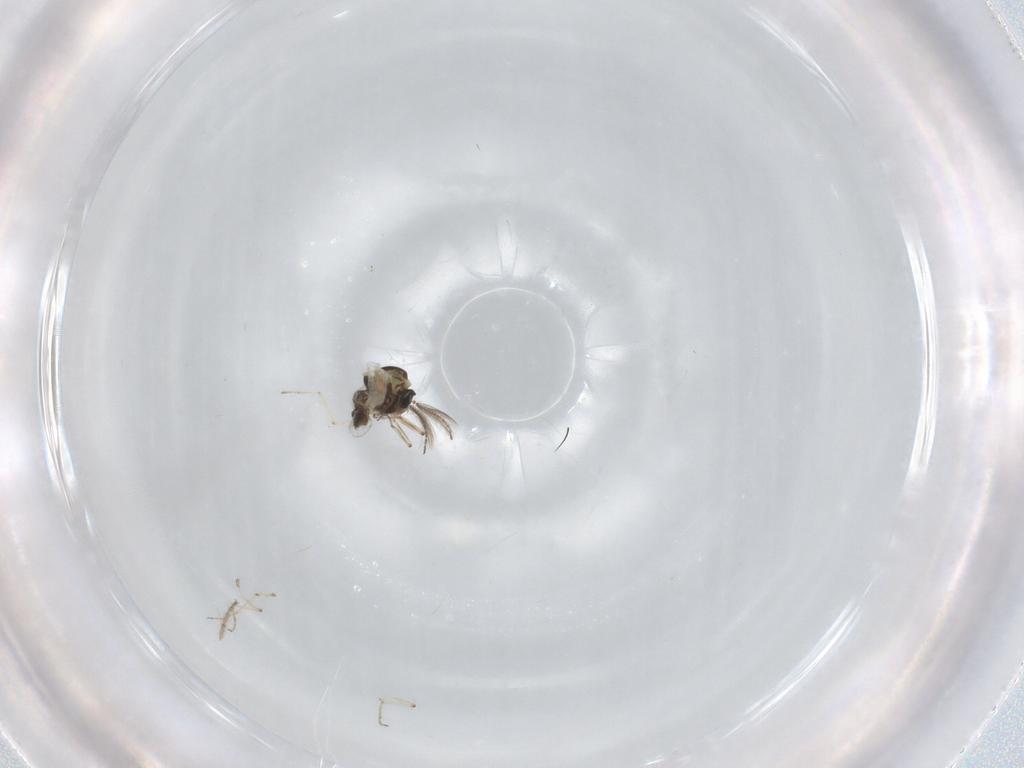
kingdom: Animalia
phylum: Arthropoda
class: Insecta
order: Diptera
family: Ceratopogonidae
